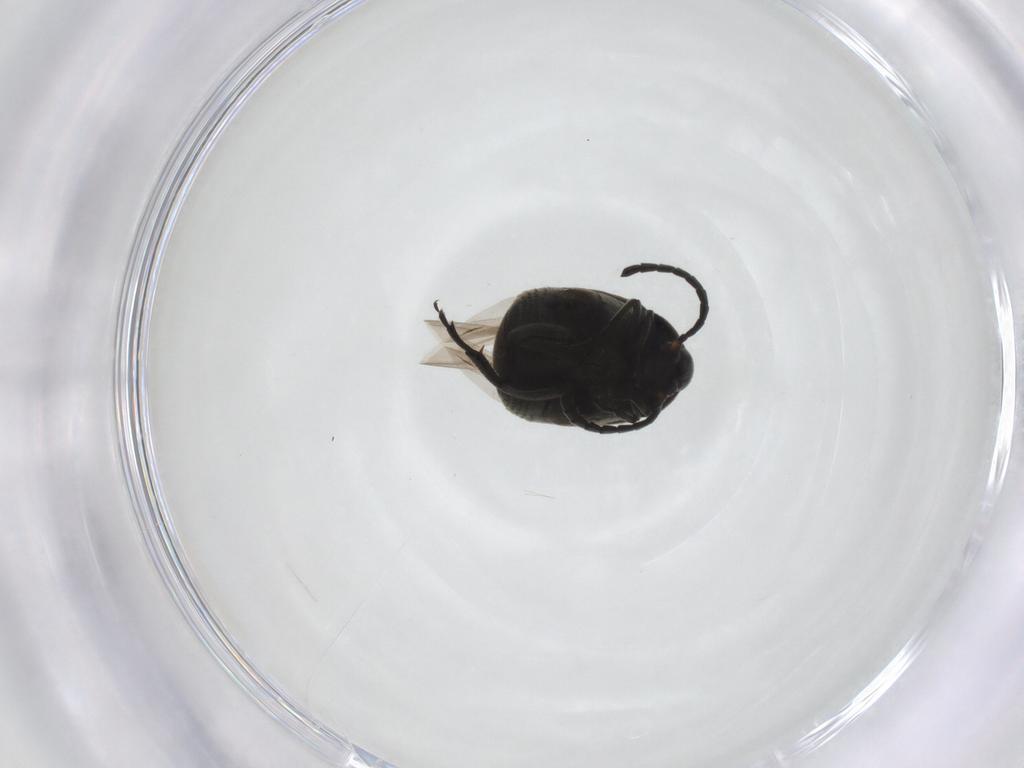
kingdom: Animalia
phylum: Arthropoda
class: Insecta
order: Coleoptera
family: Chrysomelidae
